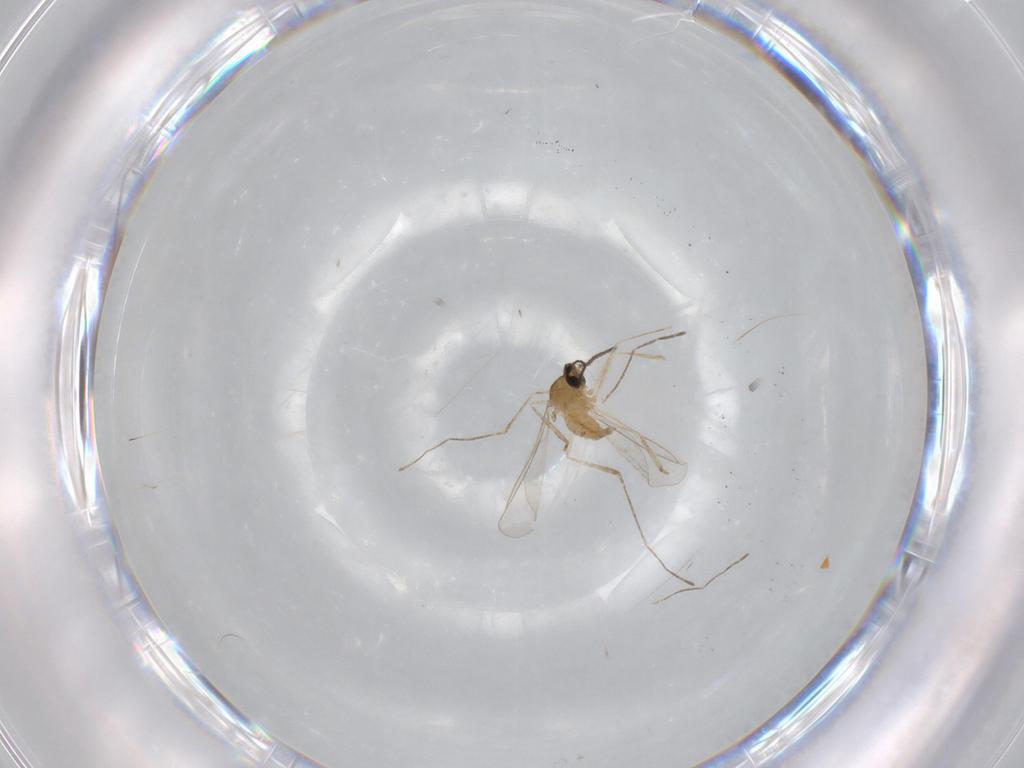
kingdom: Animalia
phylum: Arthropoda
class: Insecta
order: Diptera
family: Cecidomyiidae
